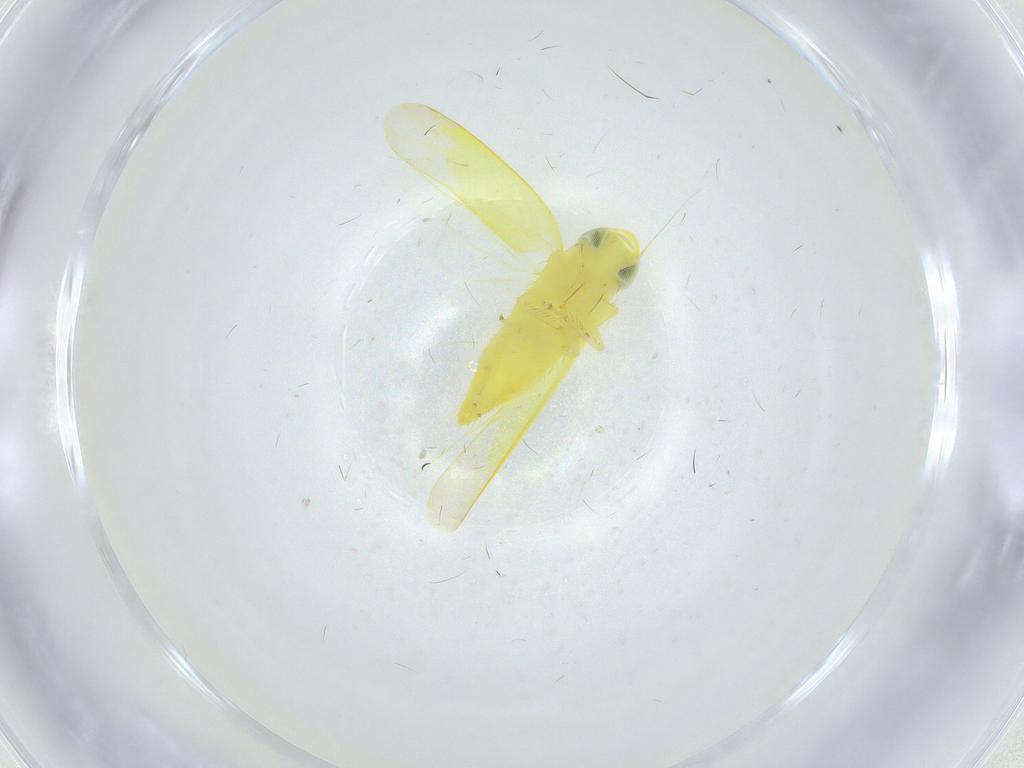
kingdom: Animalia
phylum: Arthropoda
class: Insecta
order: Hemiptera
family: Cicadellidae
